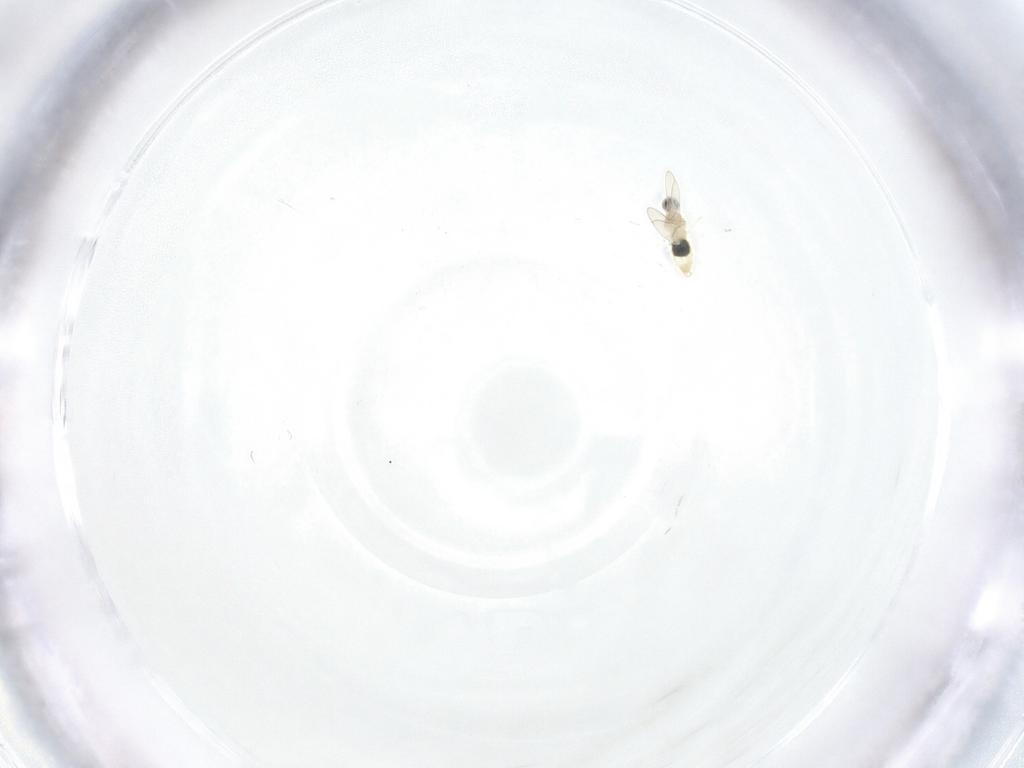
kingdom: Animalia
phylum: Arthropoda
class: Insecta
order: Diptera
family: Cecidomyiidae
